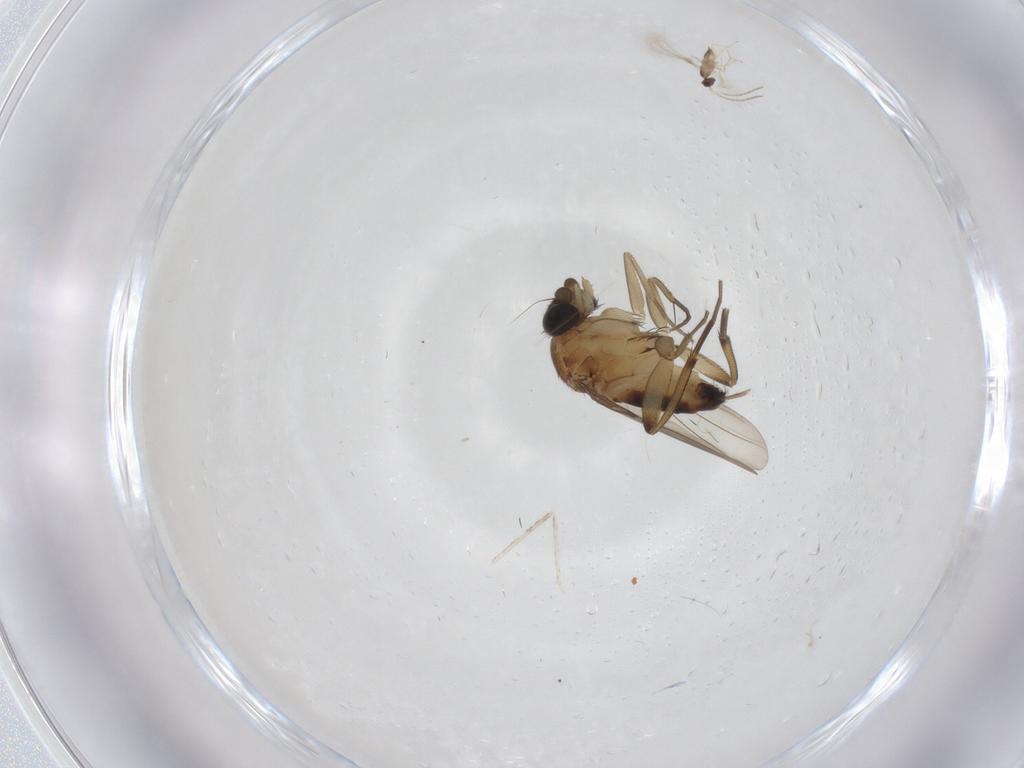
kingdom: Animalia
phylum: Arthropoda
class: Insecta
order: Diptera
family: Phoridae
